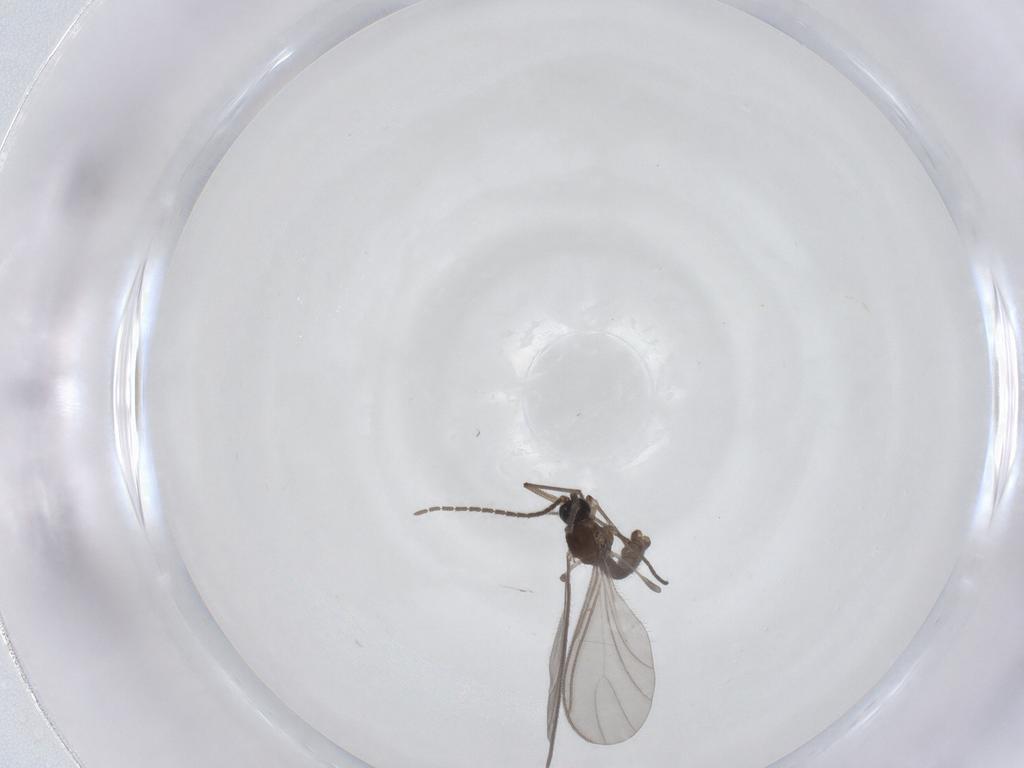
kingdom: Animalia
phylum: Arthropoda
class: Insecta
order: Diptera
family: Sciaridae
